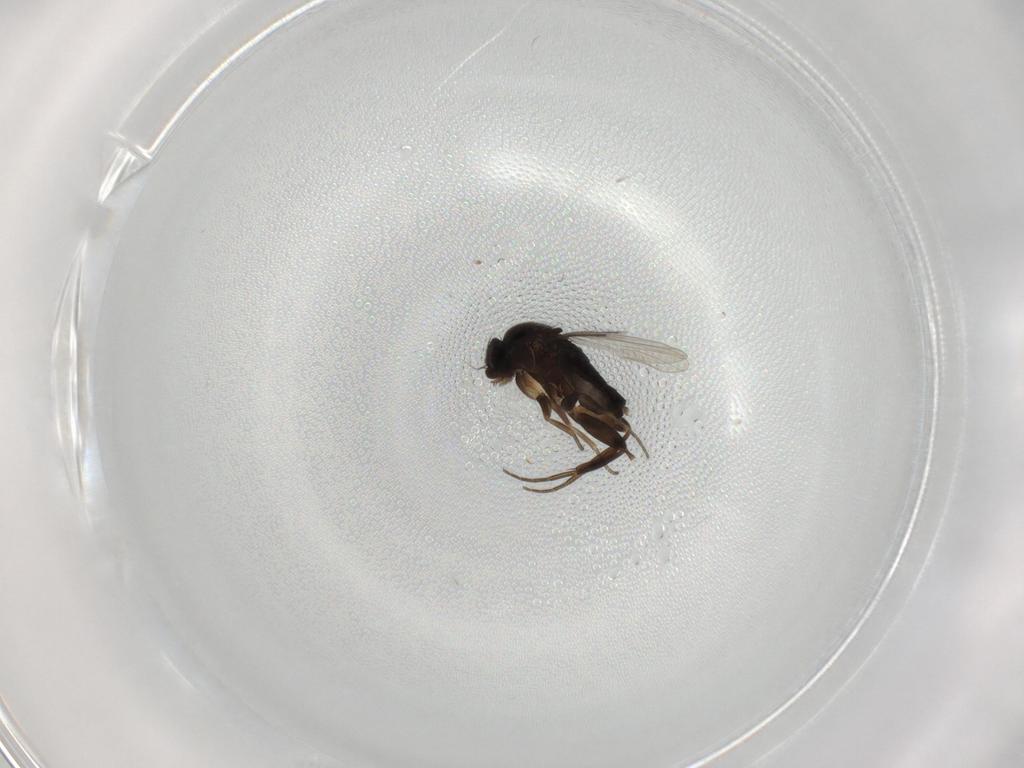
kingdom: Animalia
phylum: Arthropoda
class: Insecta
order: Diptera
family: Phoridae
